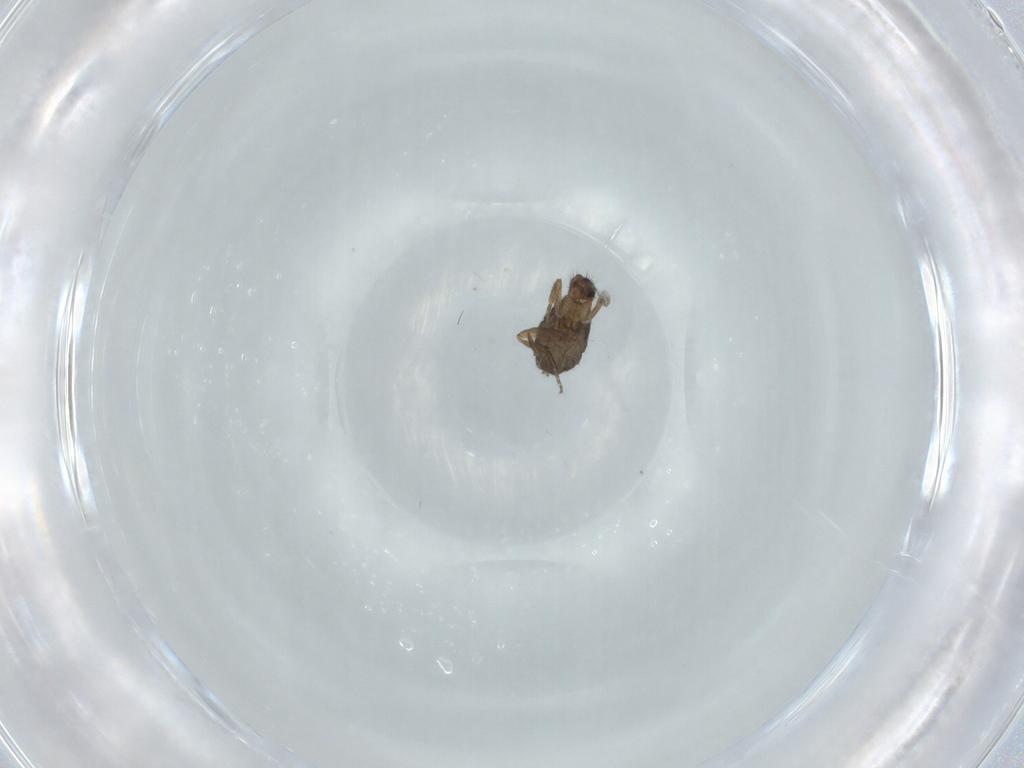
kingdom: Animalia
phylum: Arthropoda
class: Insecta
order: Diptera
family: Phoridae
